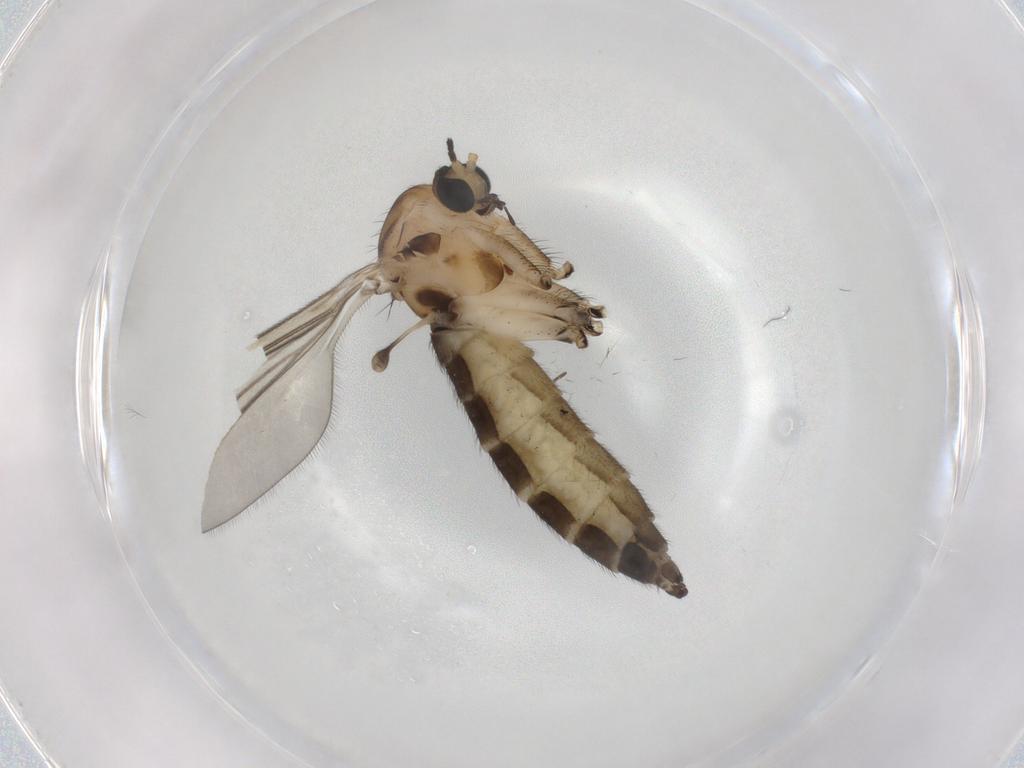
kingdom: Animalia
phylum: Arthropoda
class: Insecta
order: Diptera
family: Sciaridae
